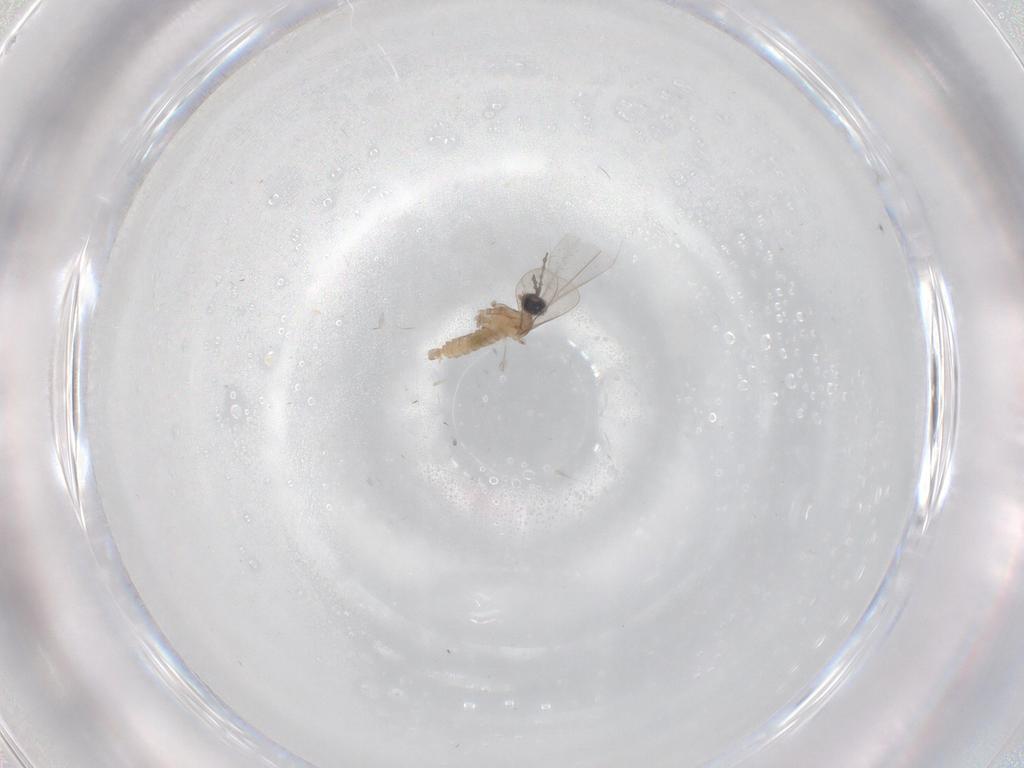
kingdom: Animalia
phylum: Arthropoda
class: Insecta
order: Diptera
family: Cecidomyiidae
